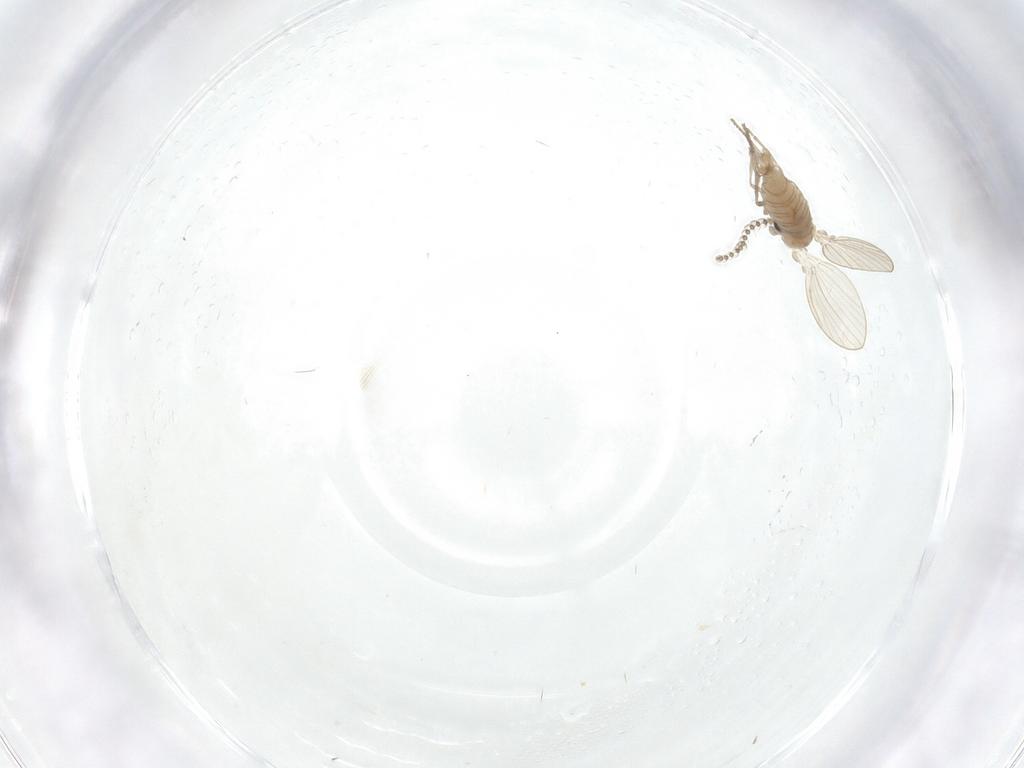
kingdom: Animalia
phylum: Arthropoda
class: Insecta
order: Diptera
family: Psychodidae
